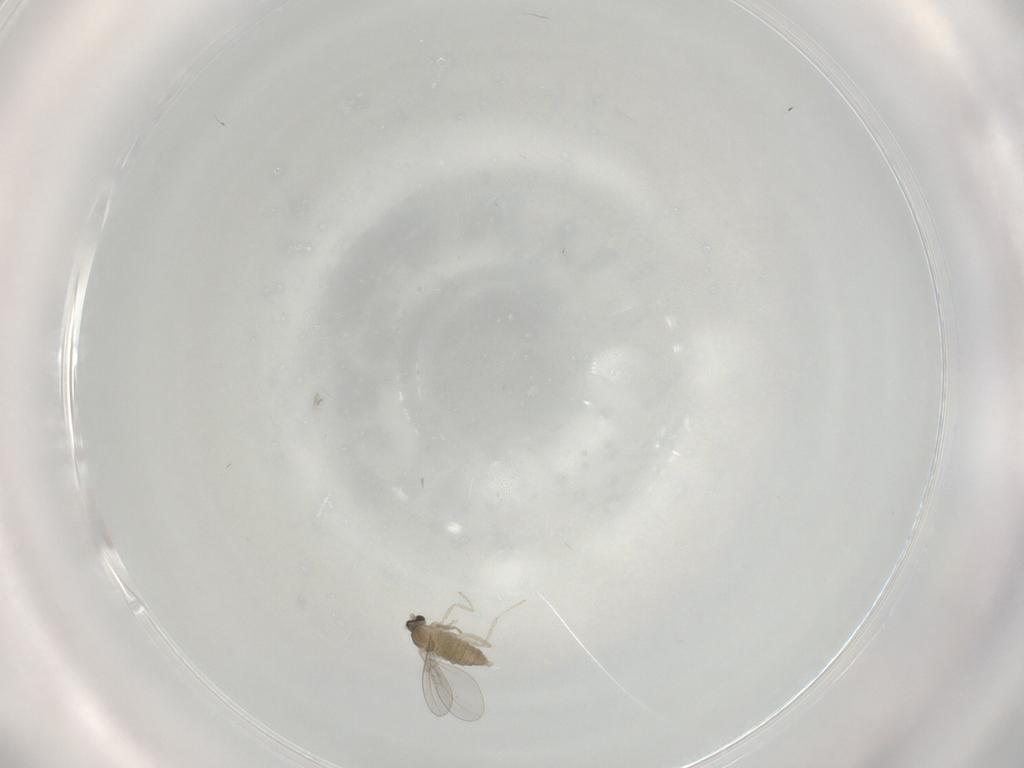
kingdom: Animalia
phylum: Arthropoda
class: Insecta
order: Diptera
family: Cecidomyiidae
